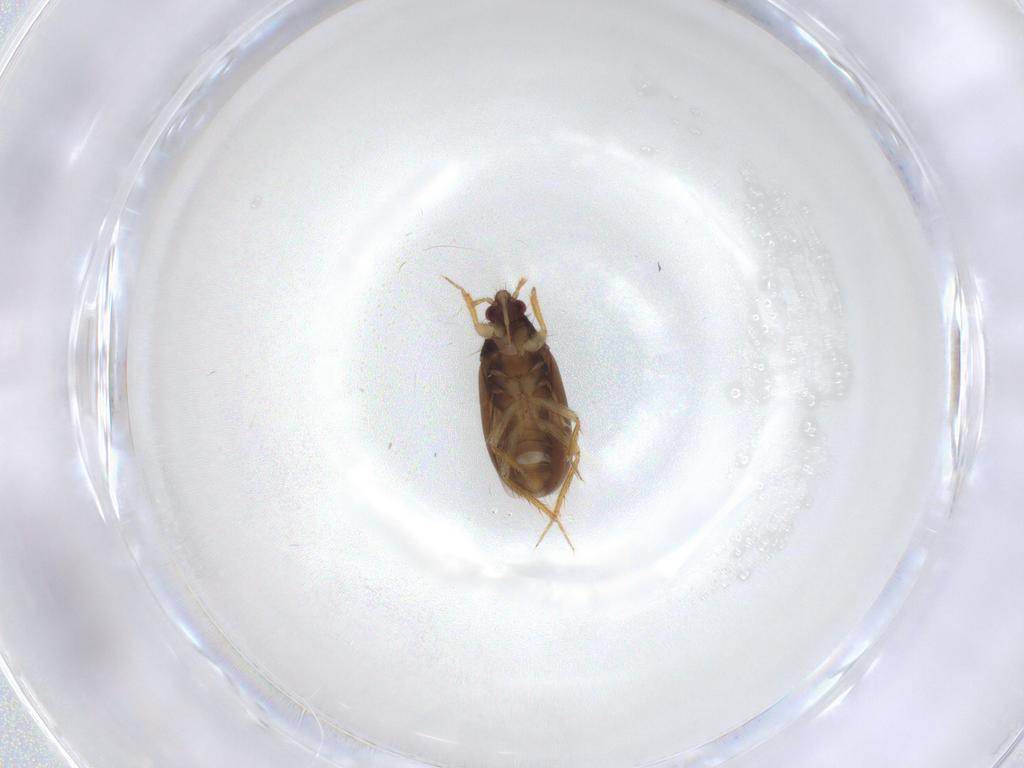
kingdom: Animalia
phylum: Arthropoda
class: Insecta
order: Hemiptera
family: Ceratocombidae
